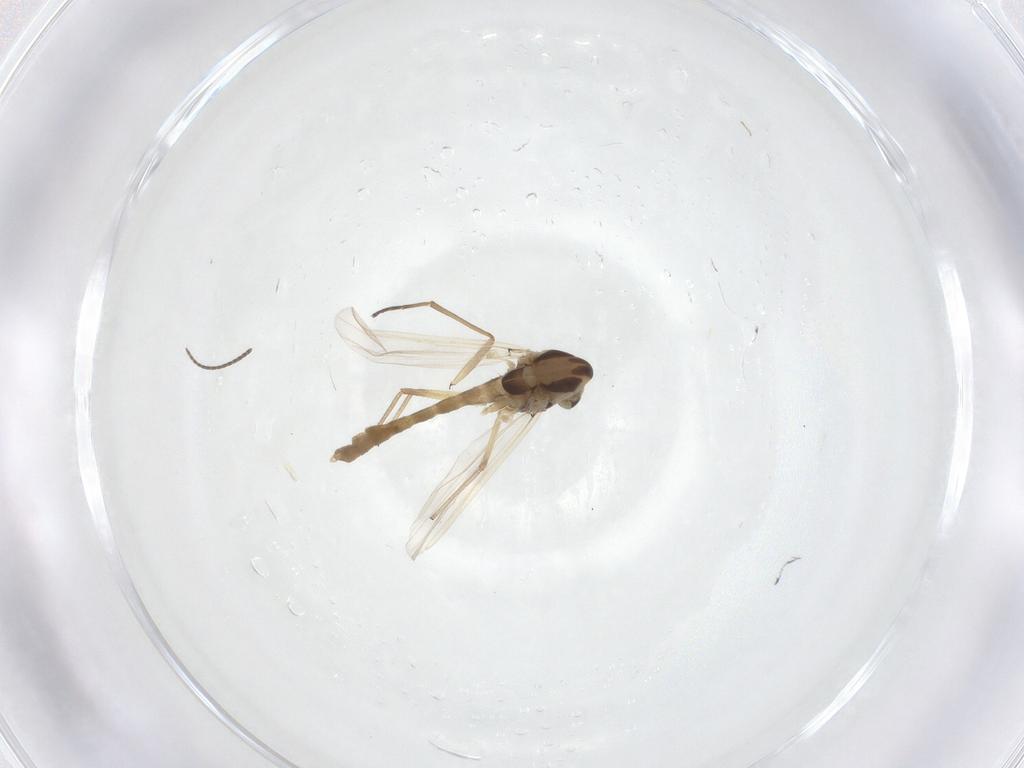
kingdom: Animalia
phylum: Arthropoda
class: Insecta
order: Diptera
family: Chironomidae
